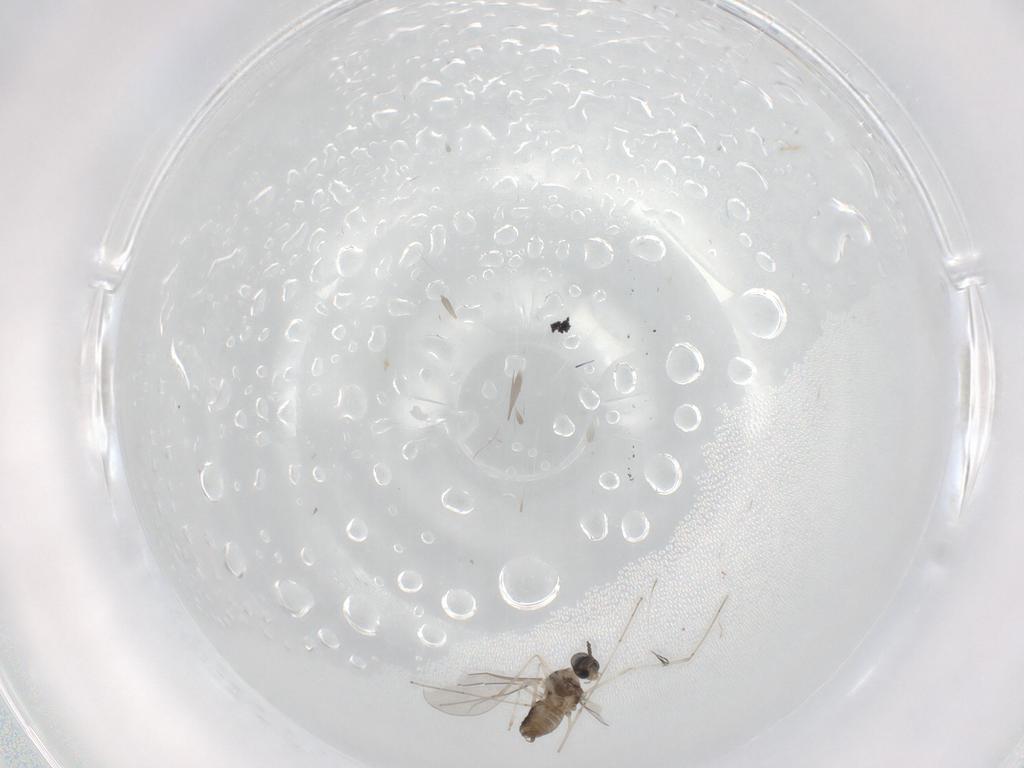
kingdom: Animalia
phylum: Arthropoda
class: Insecta
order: Diptera
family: Cecidomyiidae
